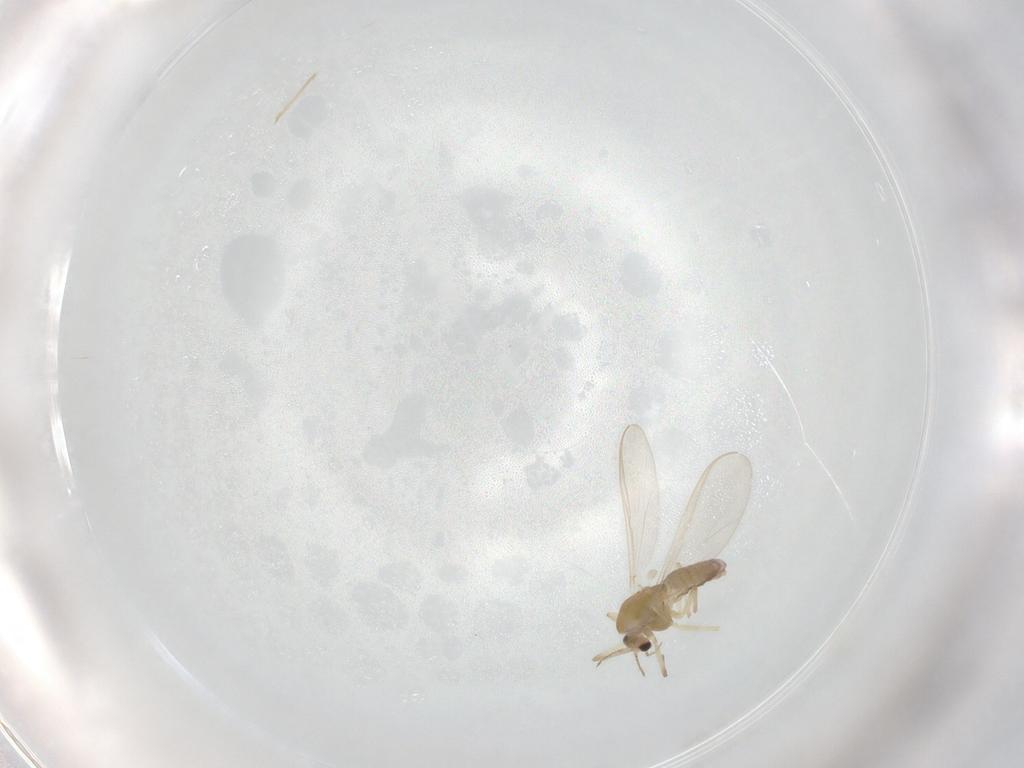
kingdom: Animalia
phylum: Arthropoda
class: Insecta
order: Diptera
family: Chironomidae
